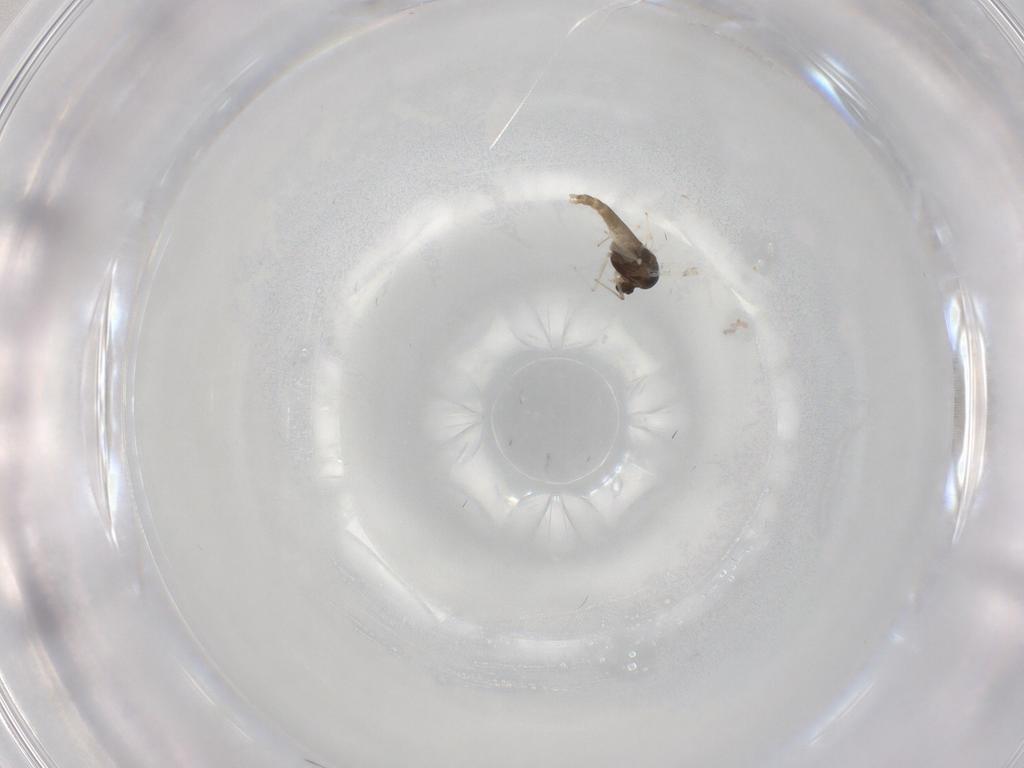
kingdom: Animalia
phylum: Arthropoda
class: Insecta
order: Diptera
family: Chironomidae
